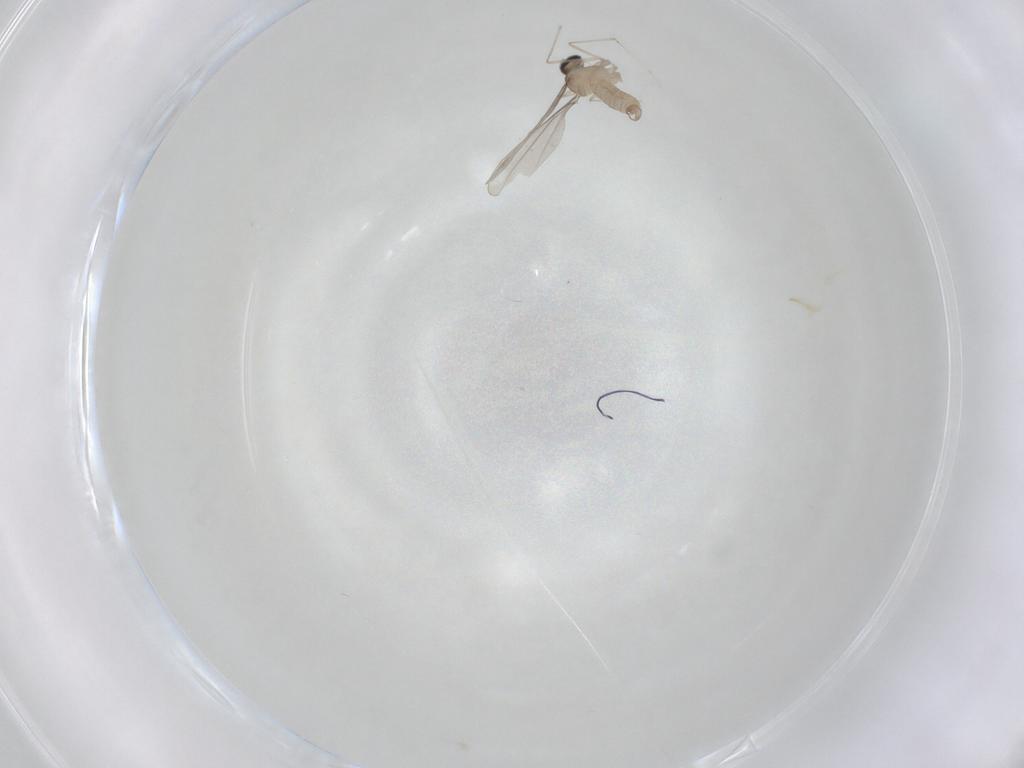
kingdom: Animalia
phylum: Arthropoda
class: Insecta
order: Diptera
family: Cecidomyiidae
